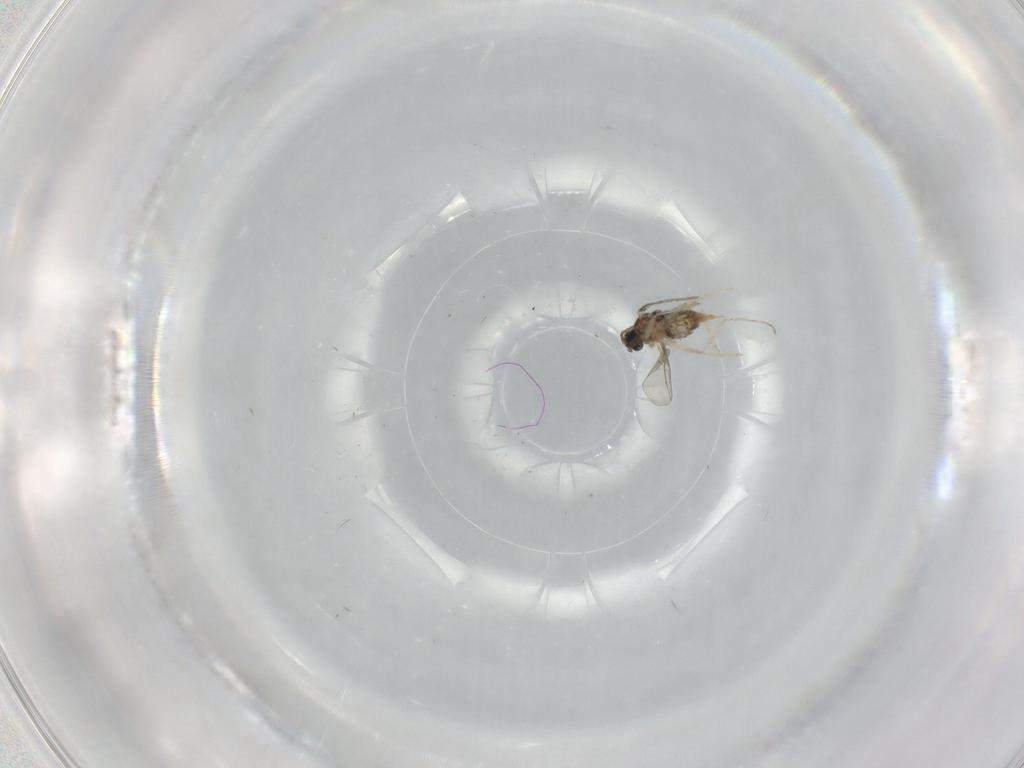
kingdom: Animalia
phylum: Arthropoda
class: Insecta
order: Diptera
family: Cecidomyiidae
